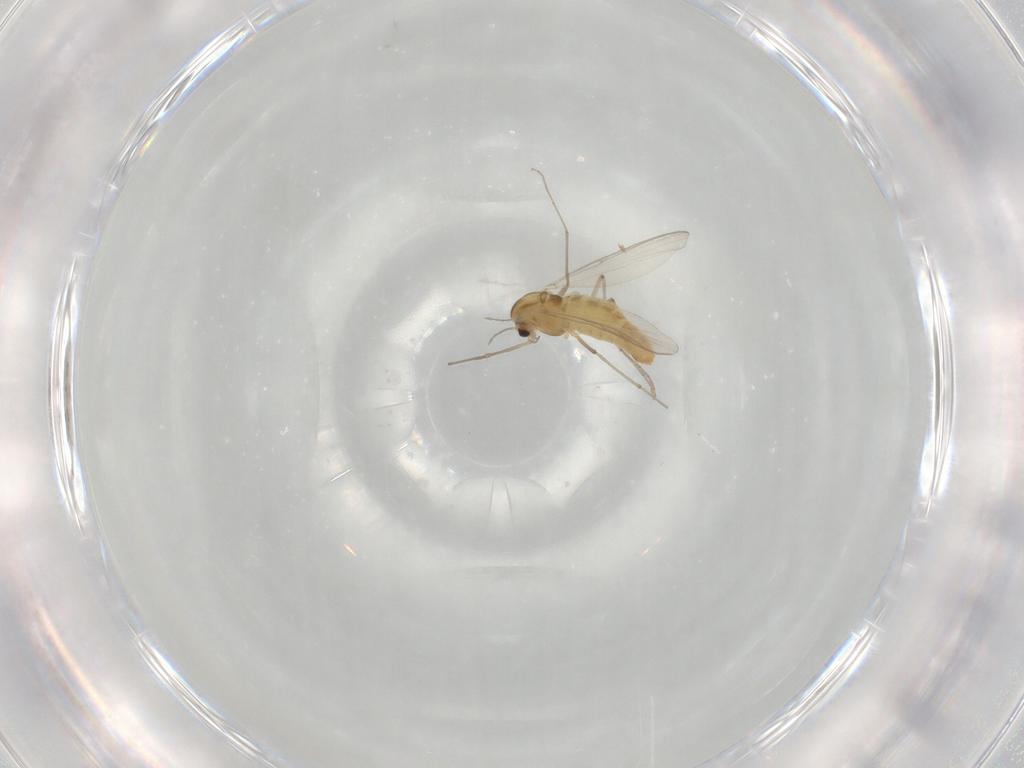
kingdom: Animalia
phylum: Arthropoda
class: Insecta
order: Diptera
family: Chironomidae
